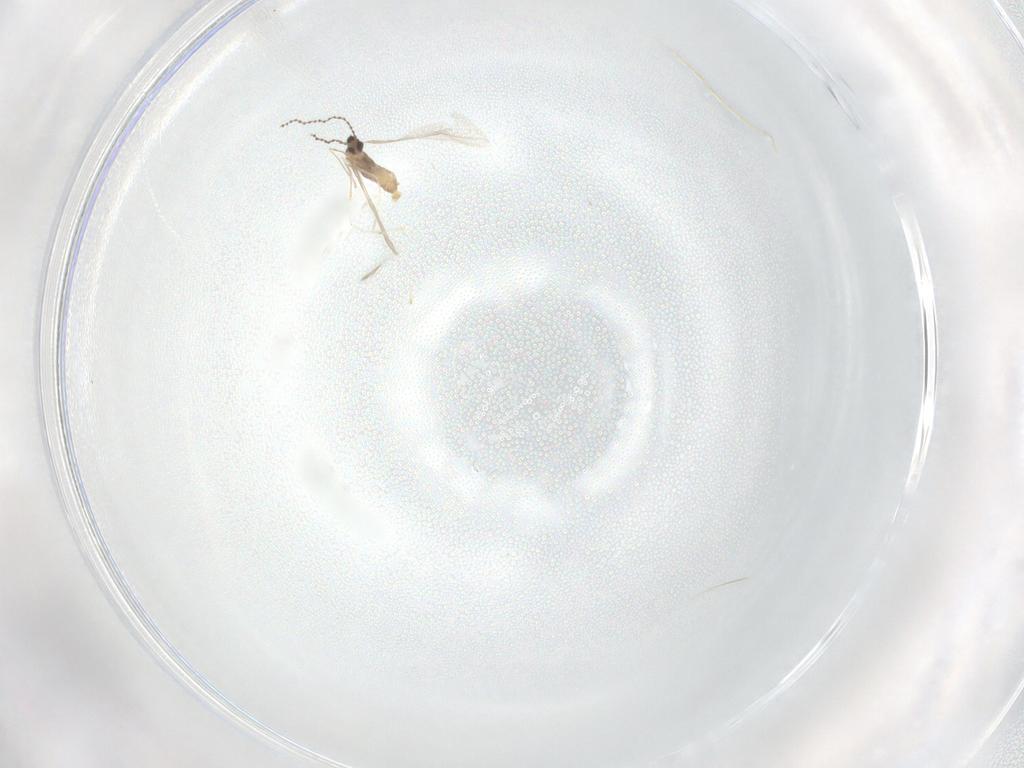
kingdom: Animalia
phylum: Arthropoda
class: Insecta
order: Diptera
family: Cecidomyiidae
